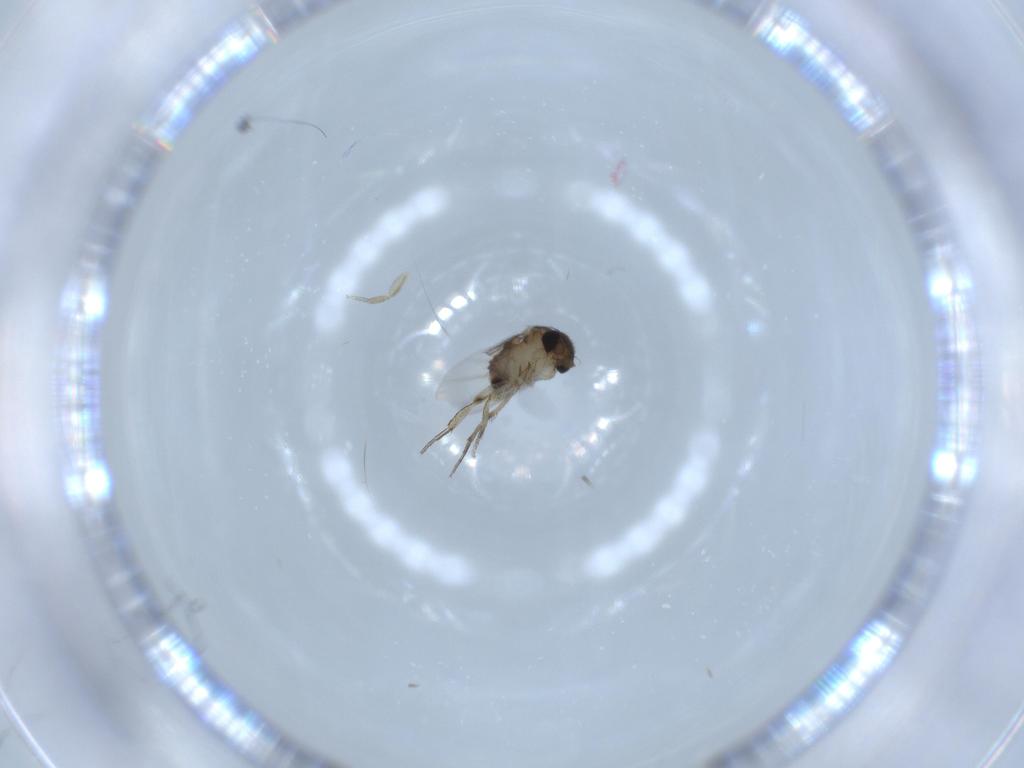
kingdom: Animalia
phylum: Arthropoda
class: Insecta
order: Diptera
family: Phoridae
